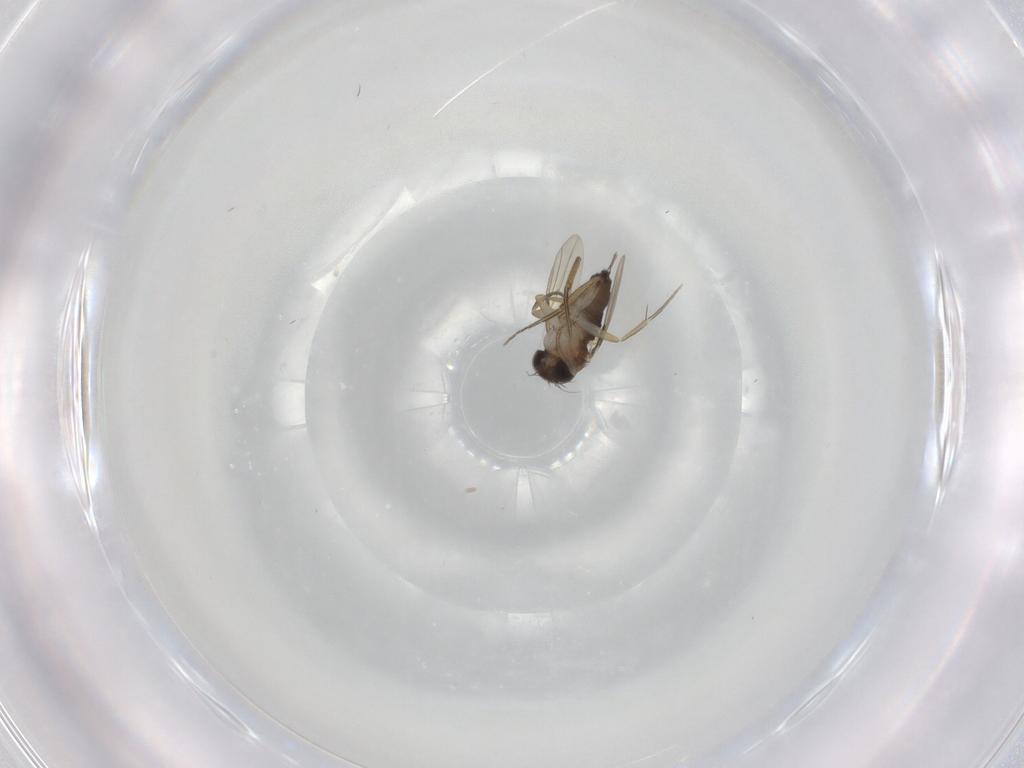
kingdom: Animalia
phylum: Arthropoda
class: Insecta
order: Diptera
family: Phoridae
